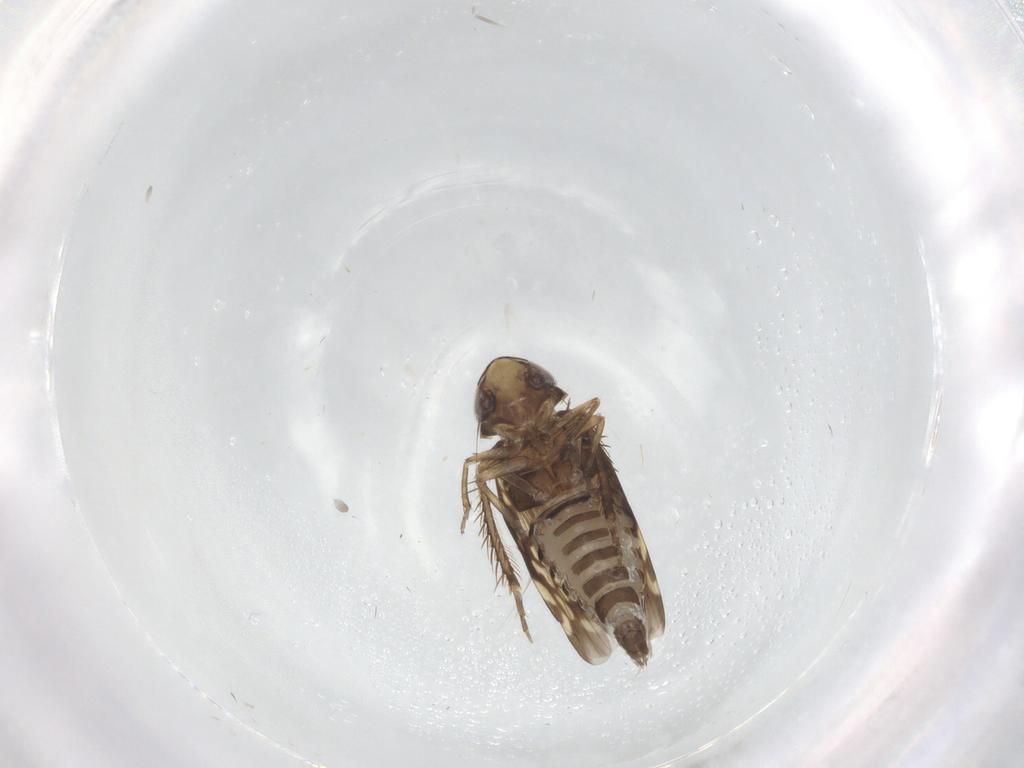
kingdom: Animalia
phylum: Arthropoda
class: Insecta
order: Hemiptera
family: Cicadellidae
